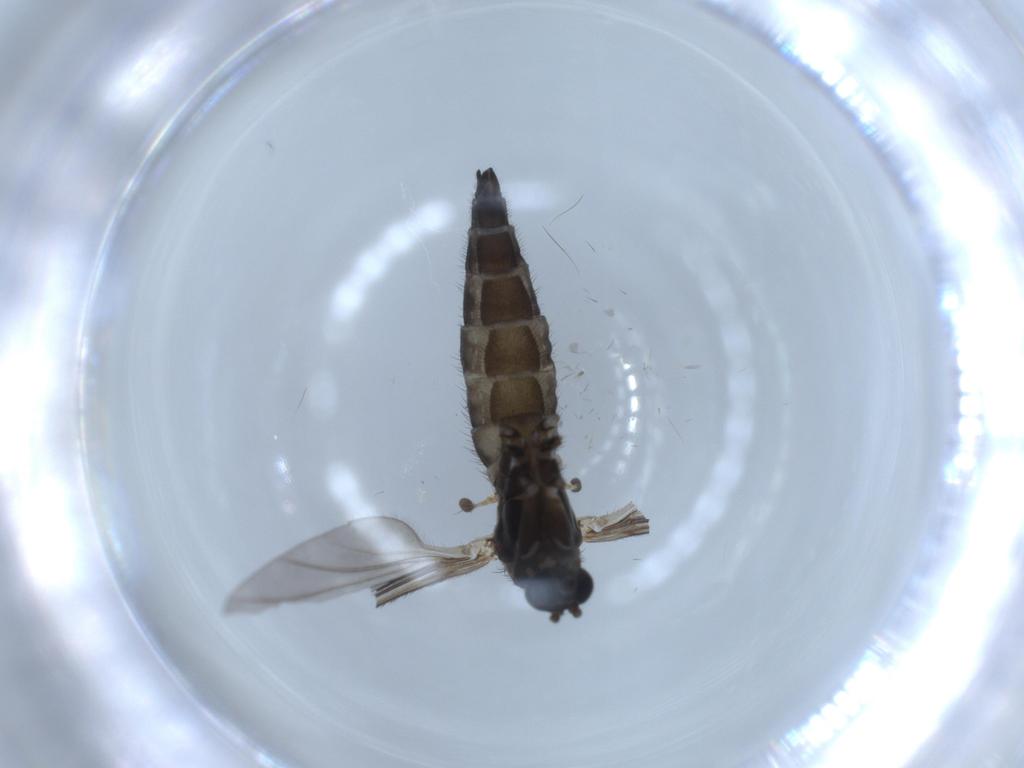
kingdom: Animalia
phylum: Arthropoda
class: Insecta
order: Diptera
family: Sciaridae
